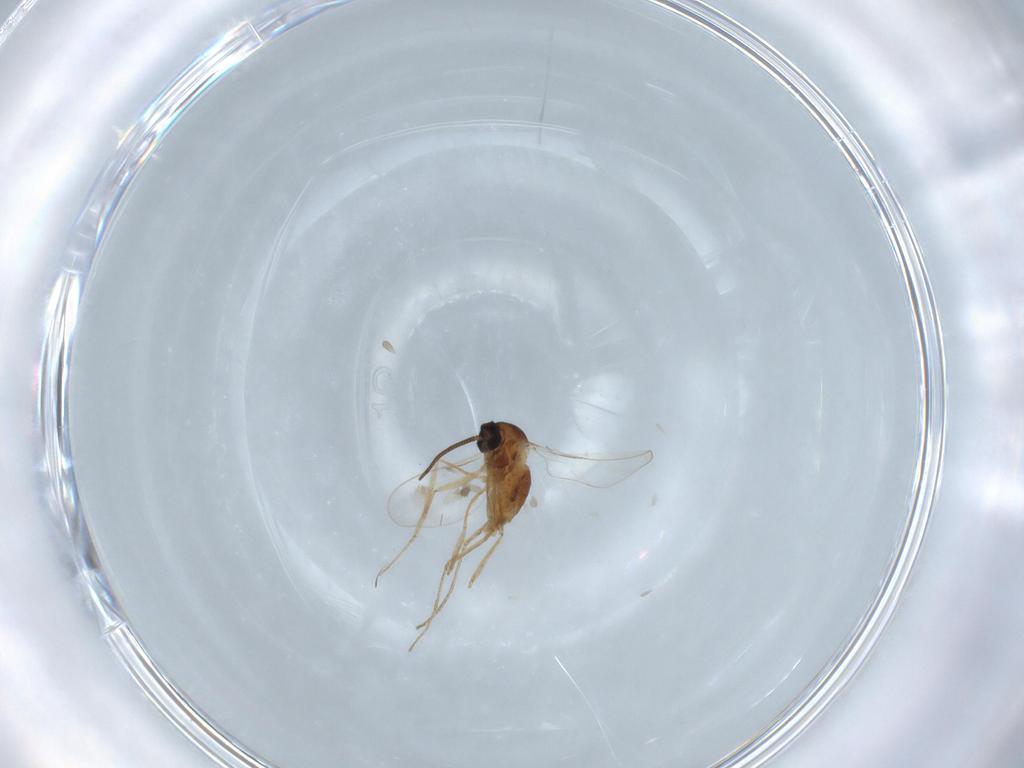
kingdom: Animalia
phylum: Arthropoda
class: Insecta
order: Diptera
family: Cecidomyiidae
